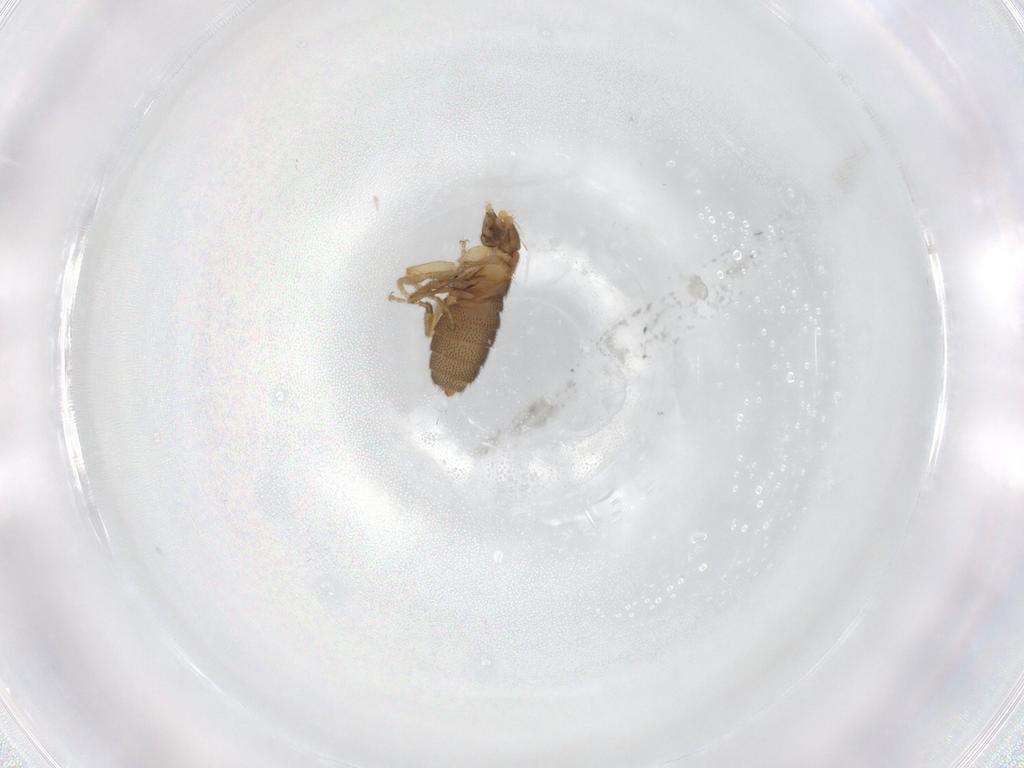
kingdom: Animalia
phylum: Arthropoda
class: Insecta
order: Diptera
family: Phoridae
